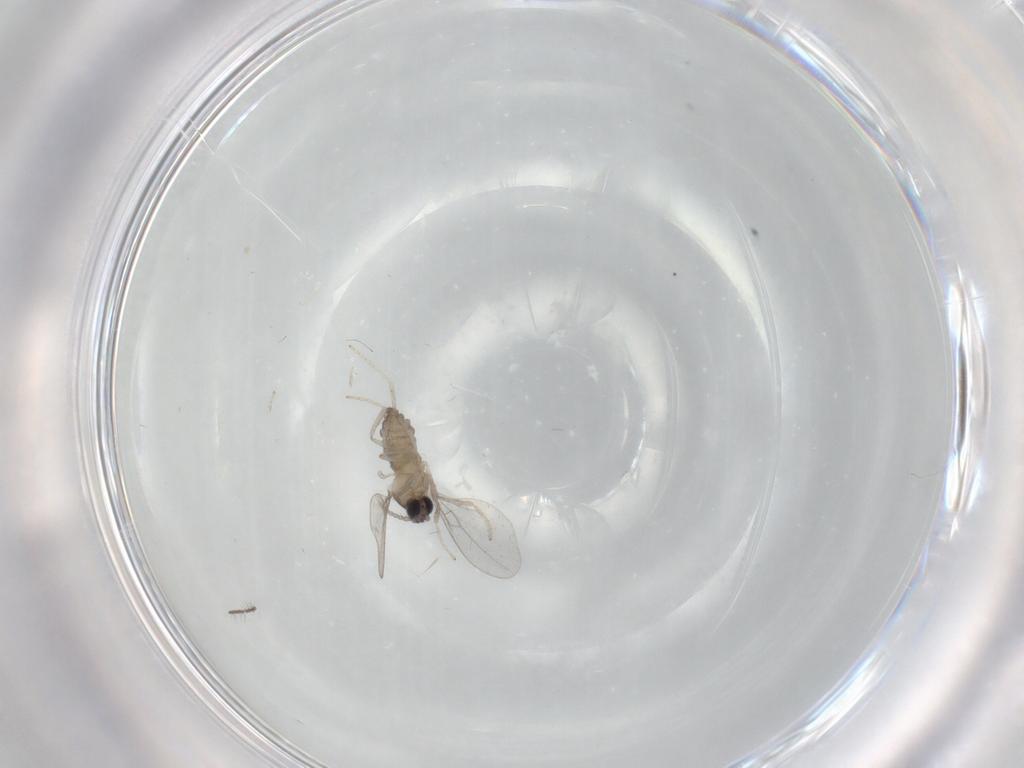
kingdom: Animalia
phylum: Arthropoda
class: Insecta
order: Diptera
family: Cecidomyiidae
